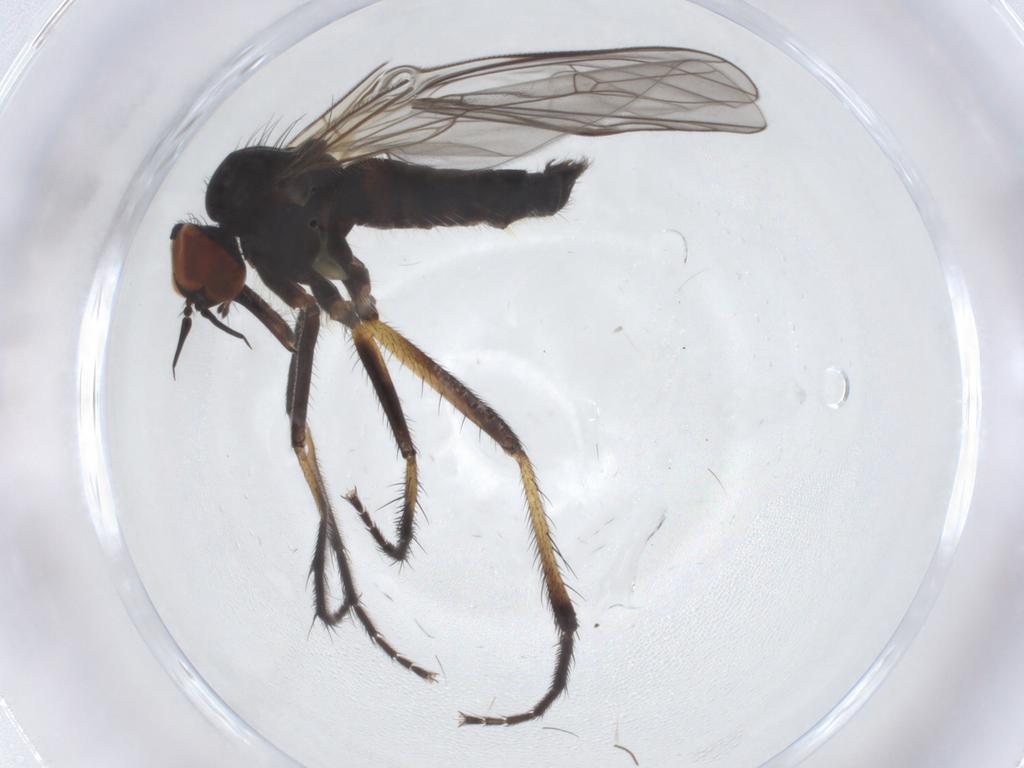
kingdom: Animalia
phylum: Arthropoda
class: Insecta
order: Diptera
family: Empididae
